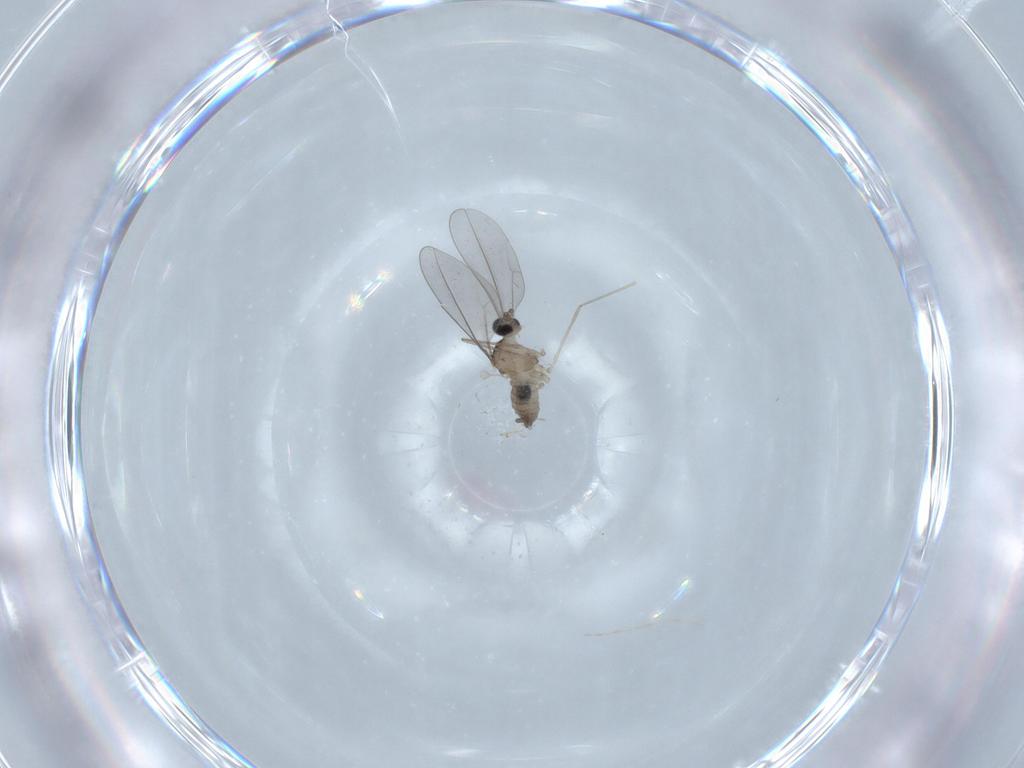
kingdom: Animalia
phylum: Arthropoda
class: Insecta
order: Diptera
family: Cecidomyiidae
